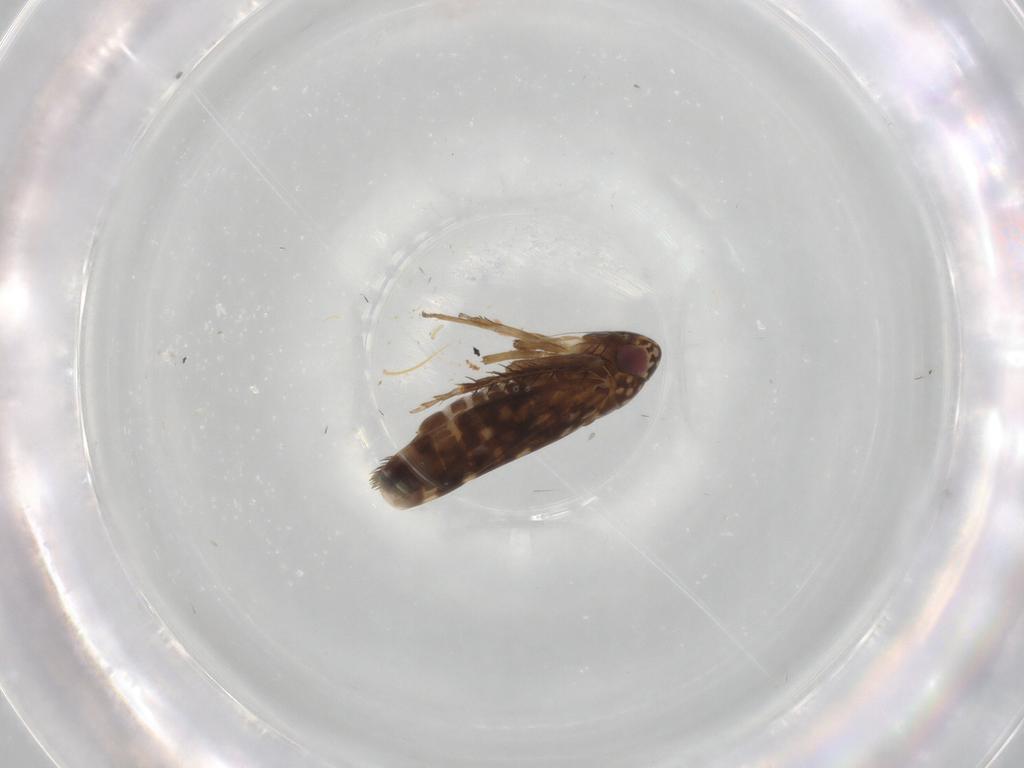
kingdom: Animalia
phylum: Arthropoda
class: Insecta
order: Hemiptera
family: Cicadellidae
